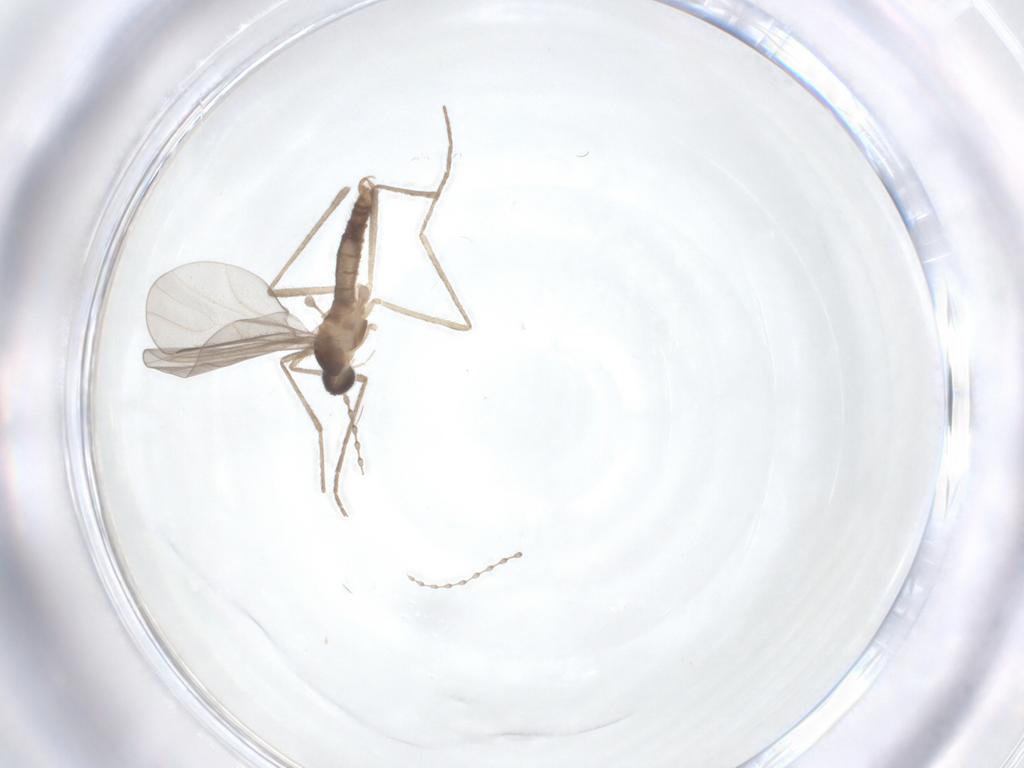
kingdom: Animalia
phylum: Arthropoda
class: Insecta
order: Diptera
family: Cecidomyiidae
